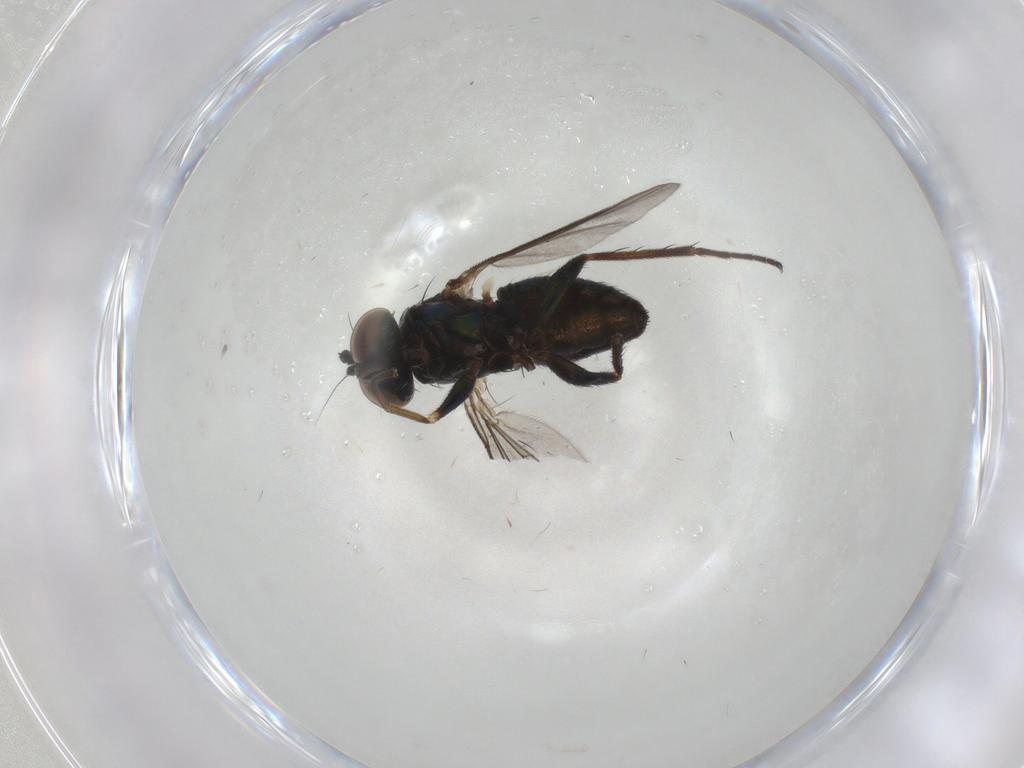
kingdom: Animalia
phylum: Arthropoda
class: Insecta
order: Diptera
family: Dolichopodidae
